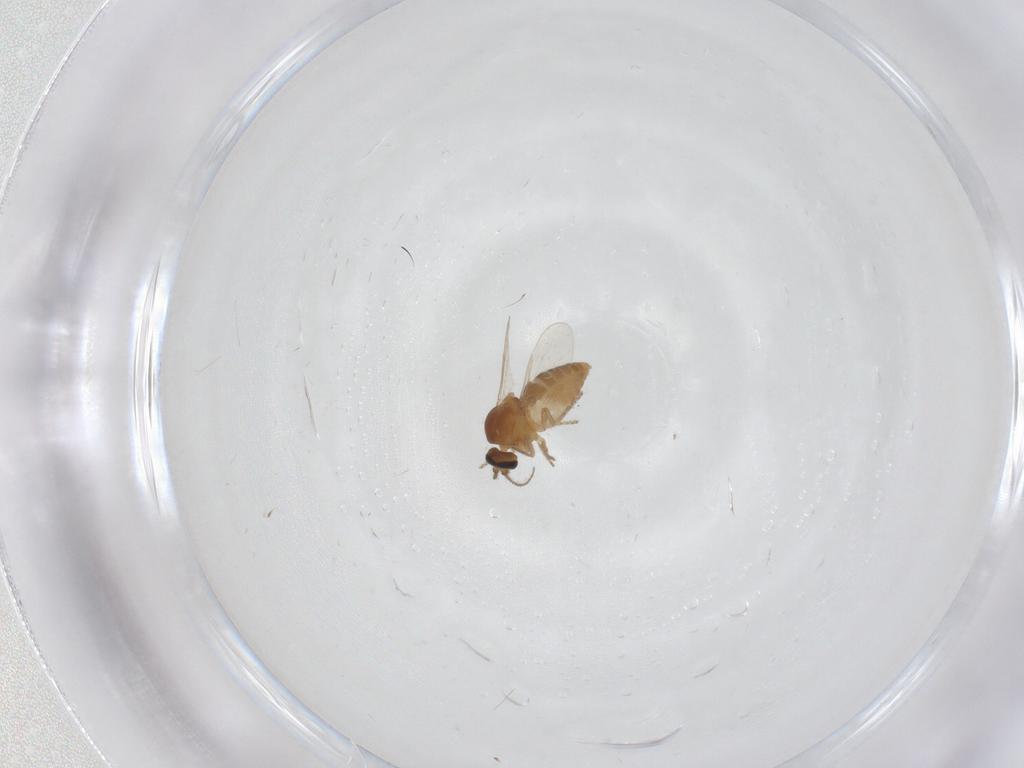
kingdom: Animalia
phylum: Arthropoda
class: Insecta
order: Diptera
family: Ceratopogonidae
